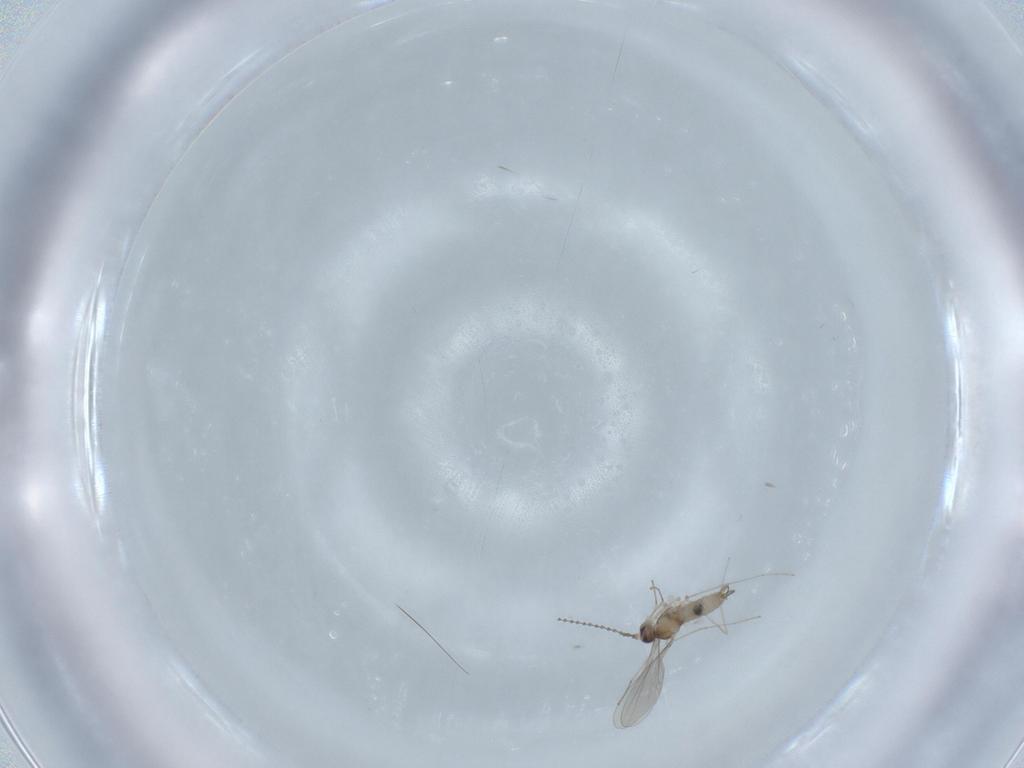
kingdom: Animalia
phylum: Arthropoda
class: Insecta
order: Diptera
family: Cecidomyiidae
